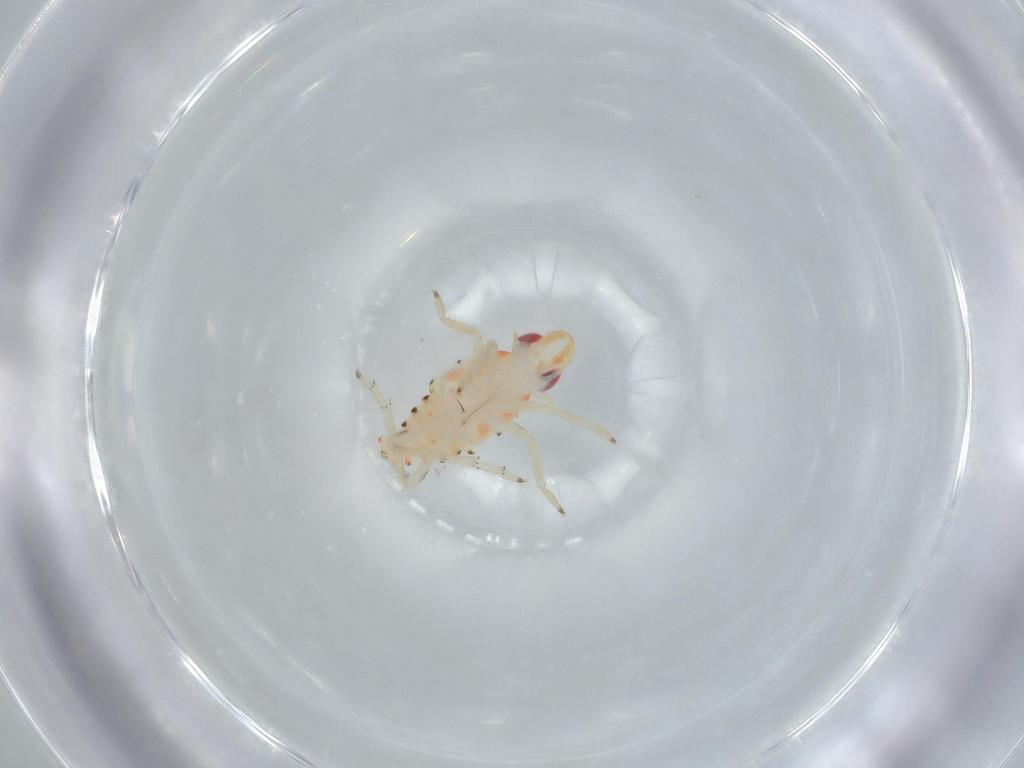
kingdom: Animalia
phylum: Arthropoda
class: Insecta
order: Hemiptera
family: Tropiduchidae
